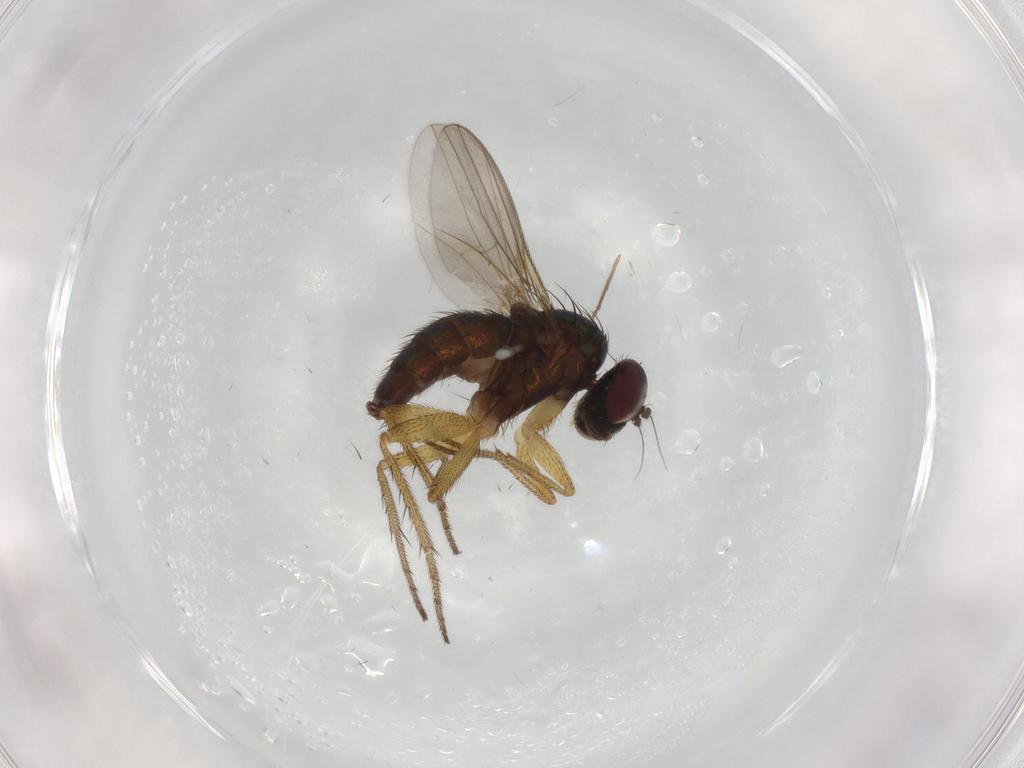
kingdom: Animalia
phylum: Arthropoda
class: Insecta
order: Diptera
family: Dolichopodidae
